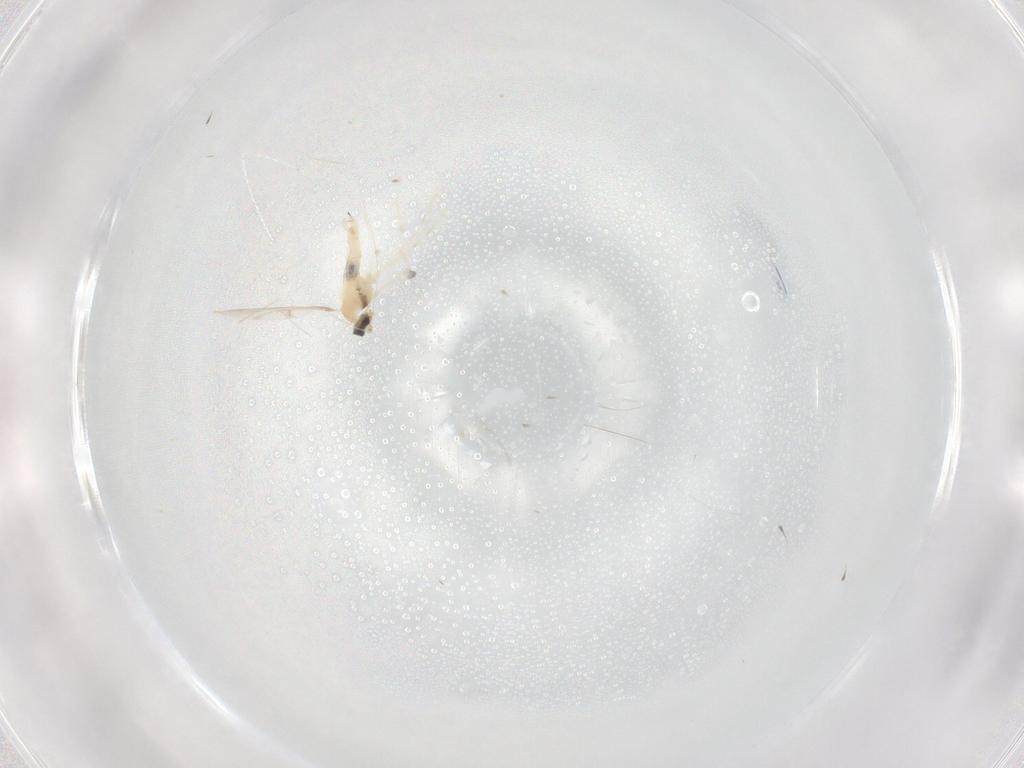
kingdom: Animalia
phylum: Arthropoda
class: Insecta
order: Diptera
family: Cecidomyiidae
